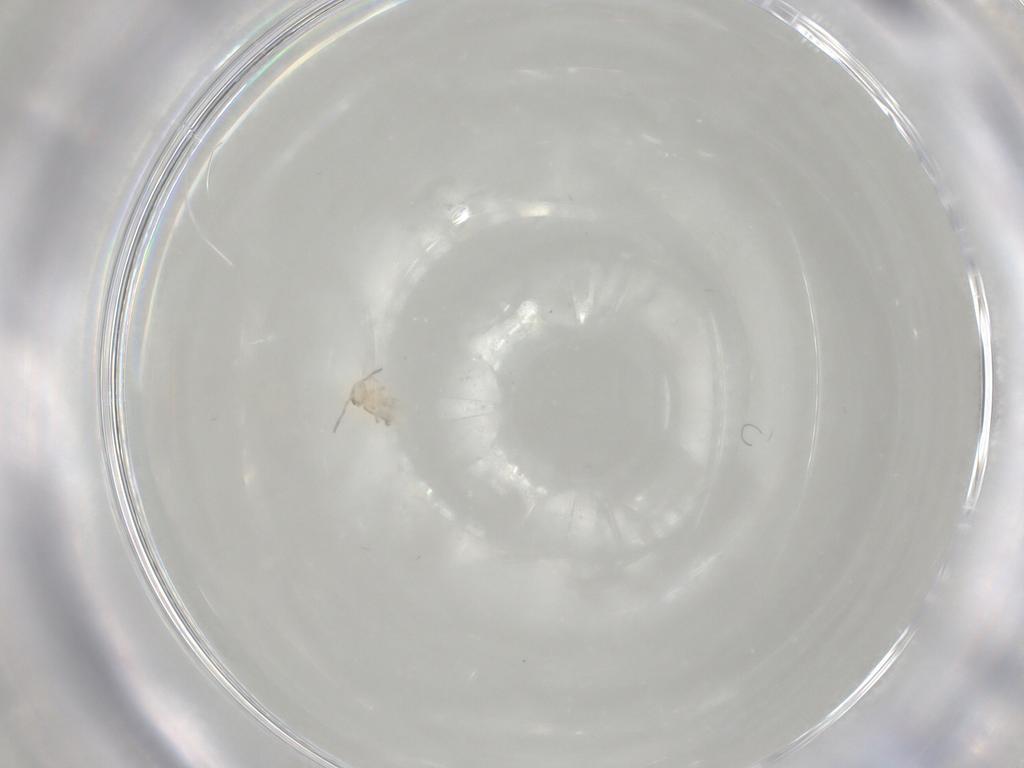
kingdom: Animalia
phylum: Arthropoda
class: Collembola
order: Symphypleona
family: Bourletiellidae
